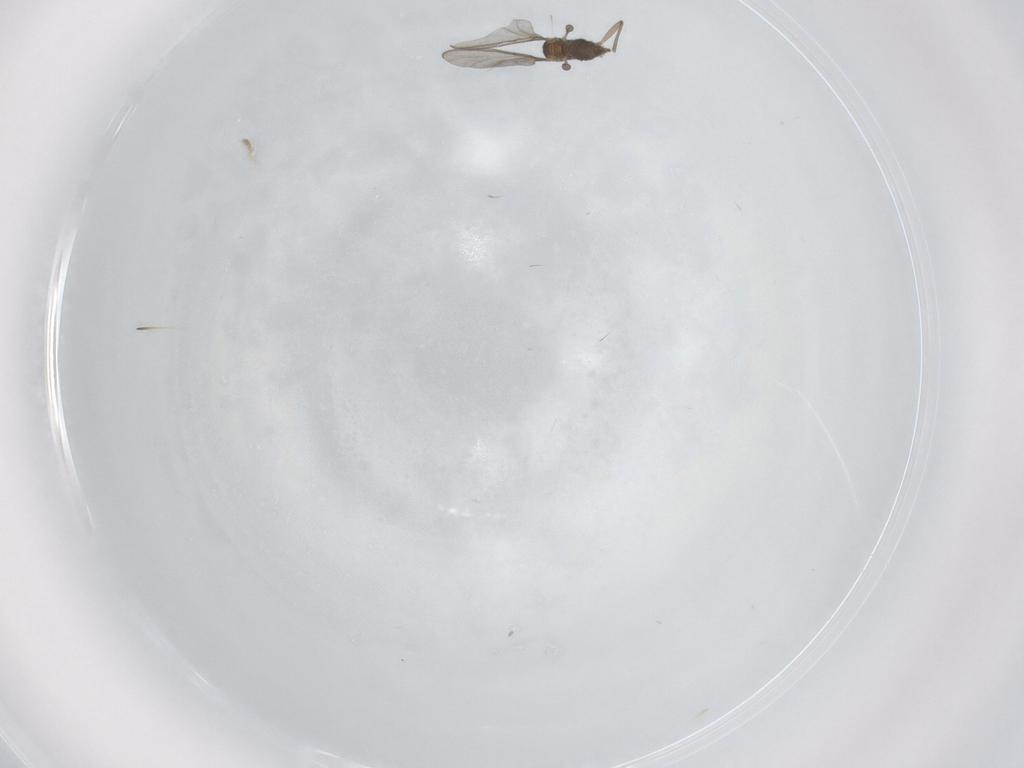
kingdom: Animalia
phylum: Arthropoda
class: Insecta
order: Diptera
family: Sciaridae
